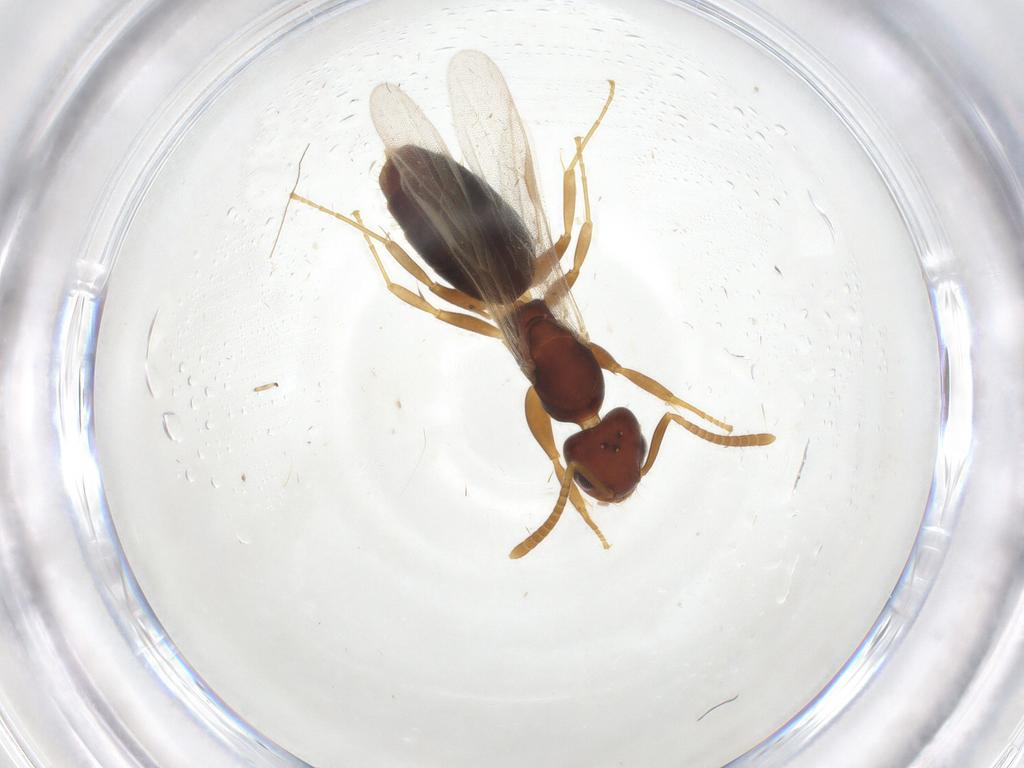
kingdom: Animalia
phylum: Arthropoda
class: Insecta
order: Hymenoptera
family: Formicidae
